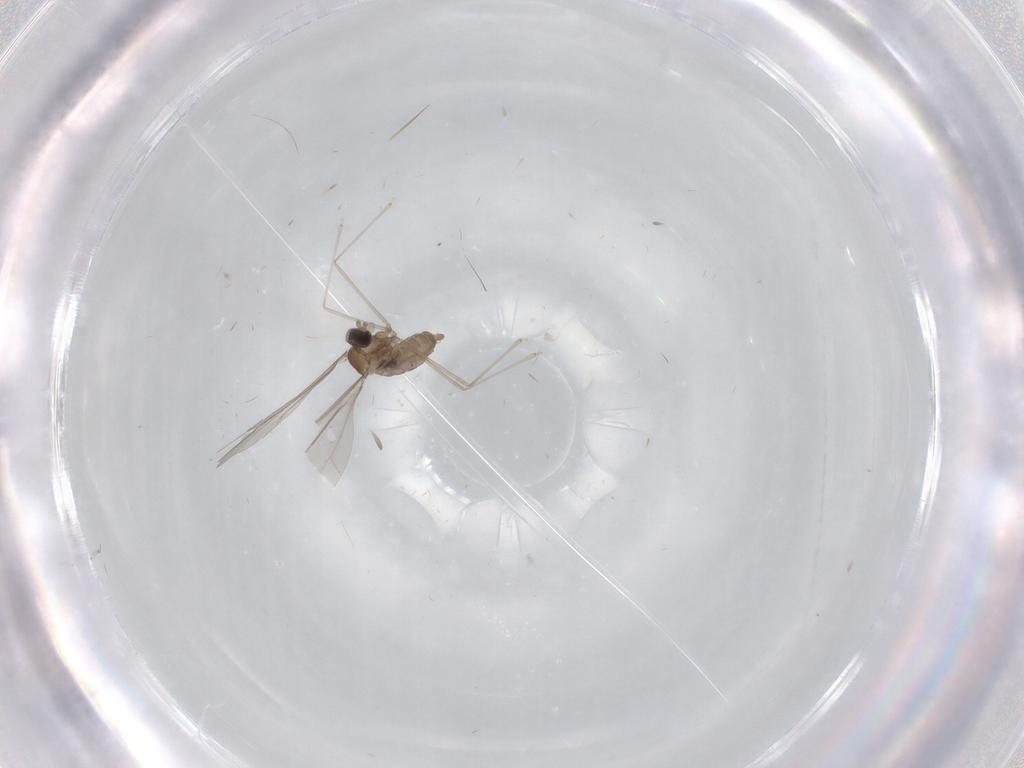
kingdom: Animalia
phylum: Arthropoda
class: Insecta
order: Diptera
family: Cecidomyiidae
